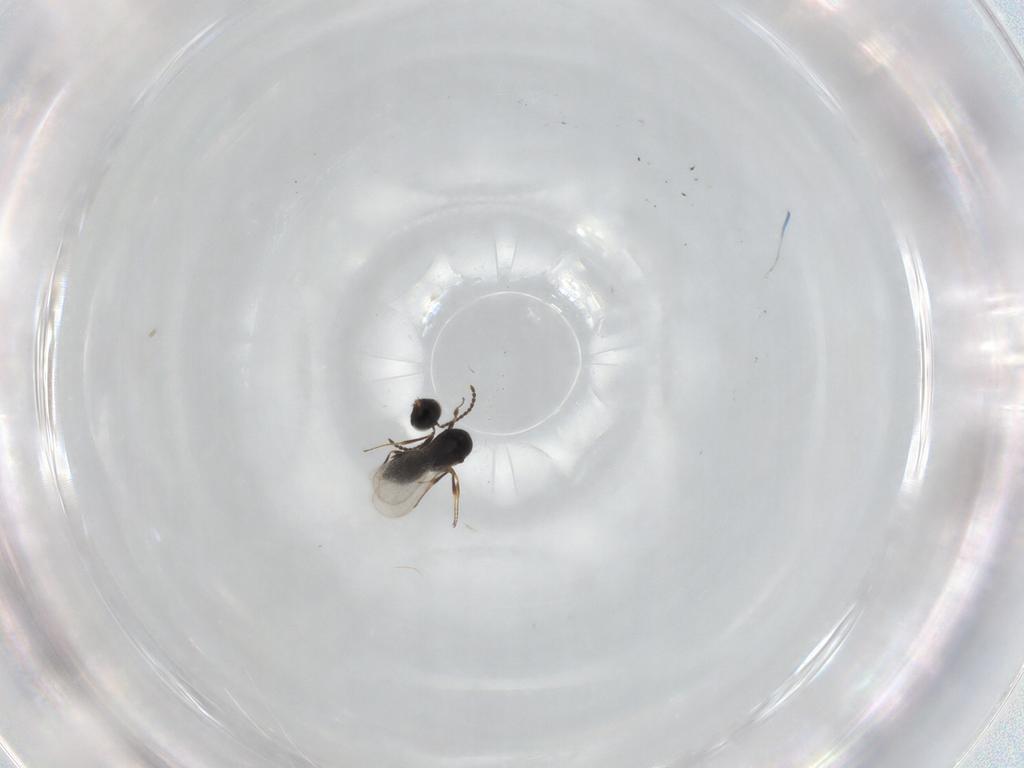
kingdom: Animalia
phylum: Arthropoda
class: Insecta
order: Hymenoptera
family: Scelionidae
